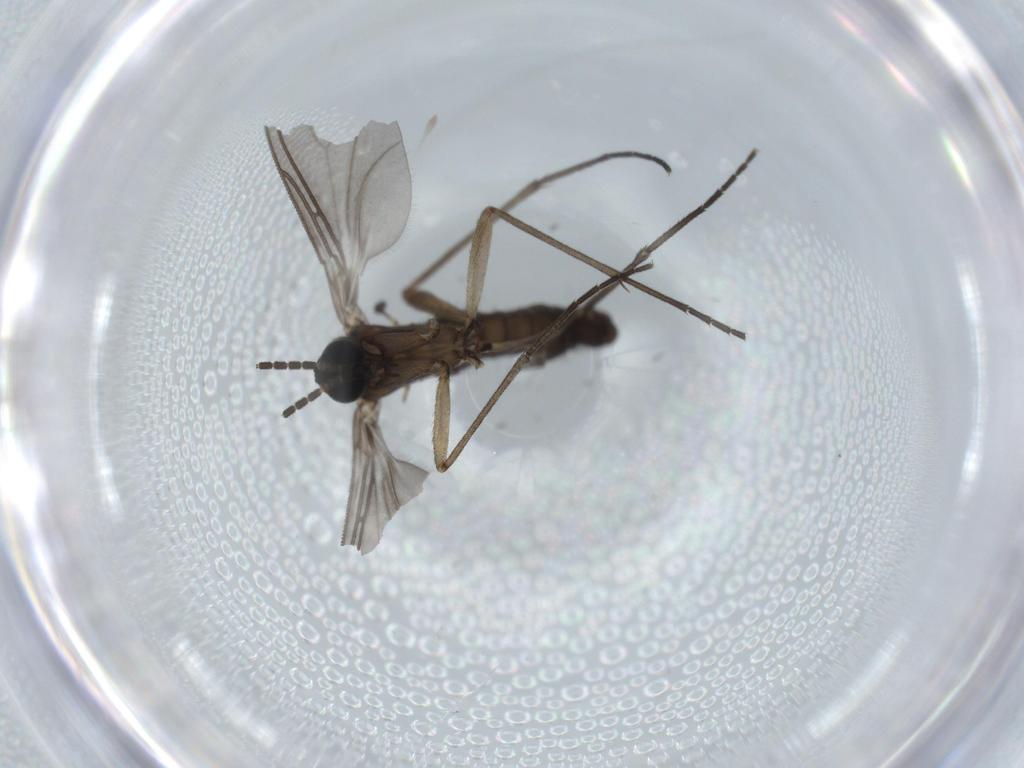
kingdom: Animalia
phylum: Arthropoda
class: Insecta
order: Diptera
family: Sciaridae
